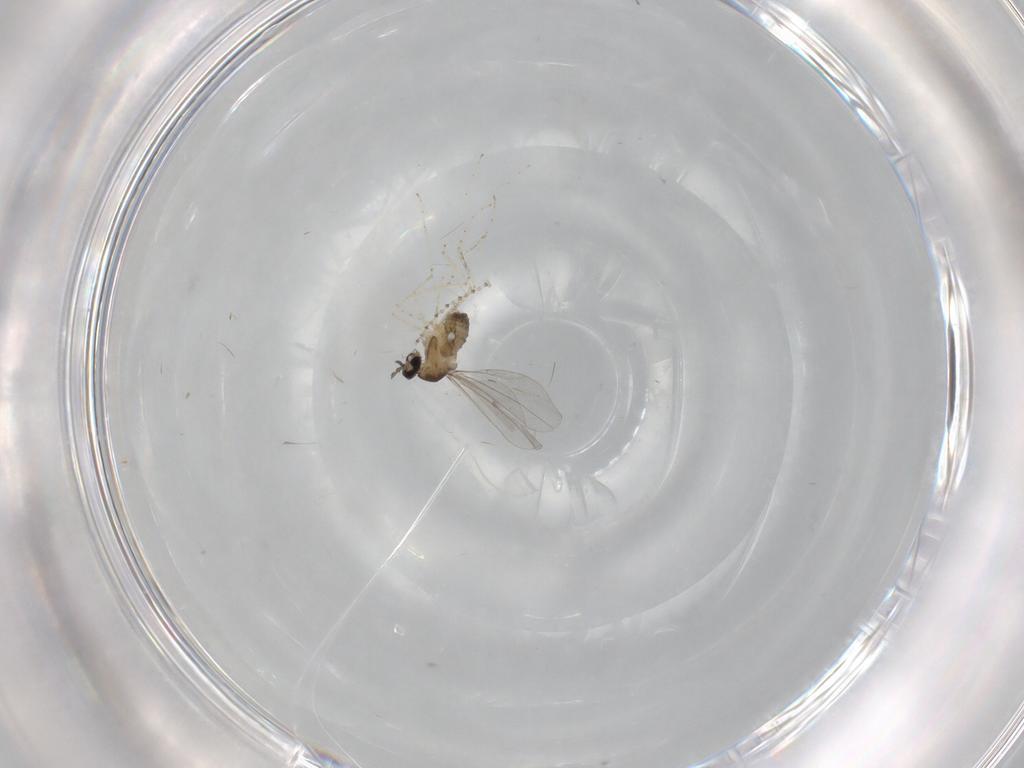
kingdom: Animalia
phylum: Arthropoda
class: Insecta
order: Diptera
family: Cecidomyiidae
